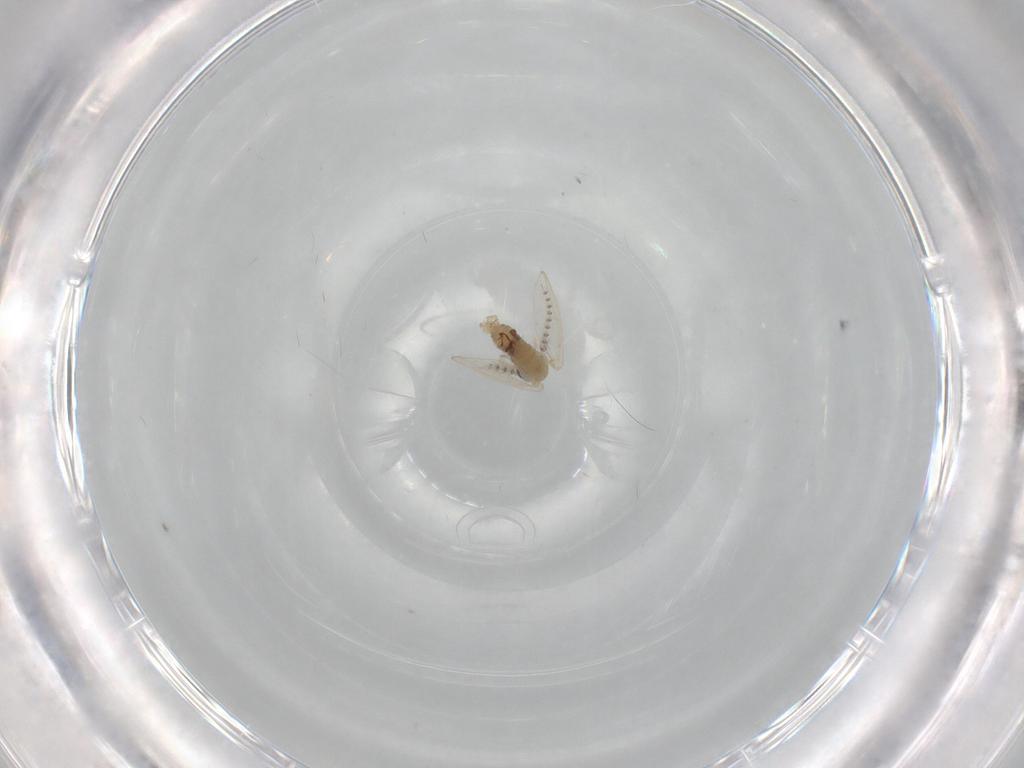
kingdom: Animalia
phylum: Arthropoda
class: Insecta
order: Diptera
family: Psychodidae
